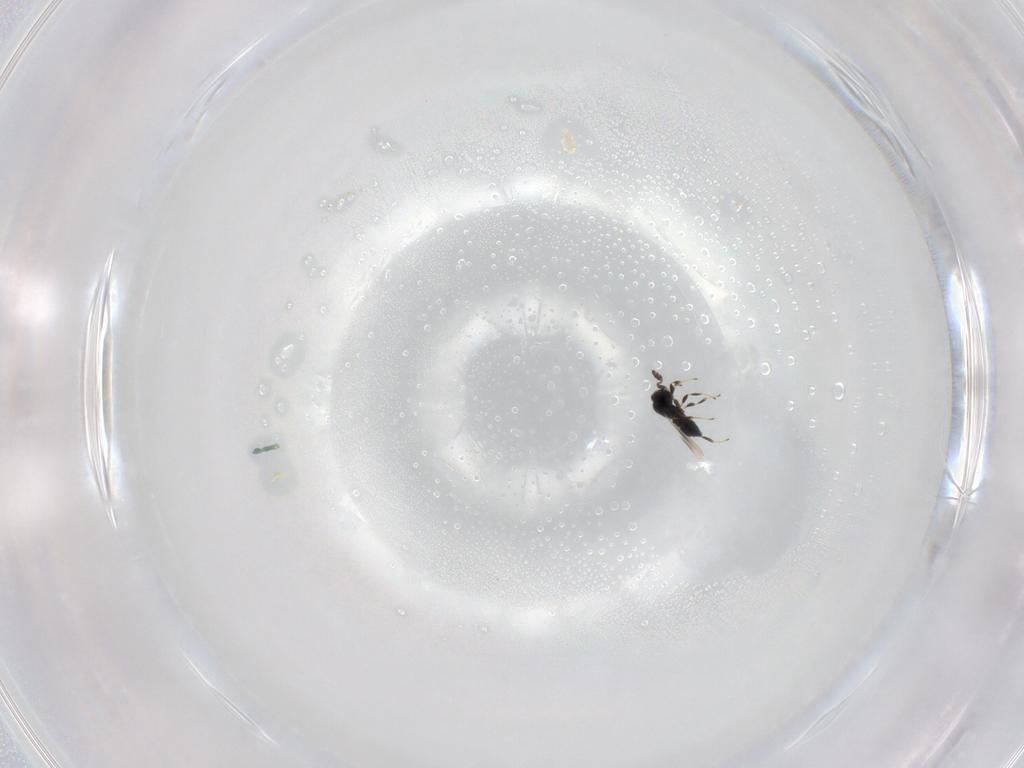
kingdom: Animalia
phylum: Arthropoda
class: Insecta
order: Hymenoptera
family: Platygastridae
